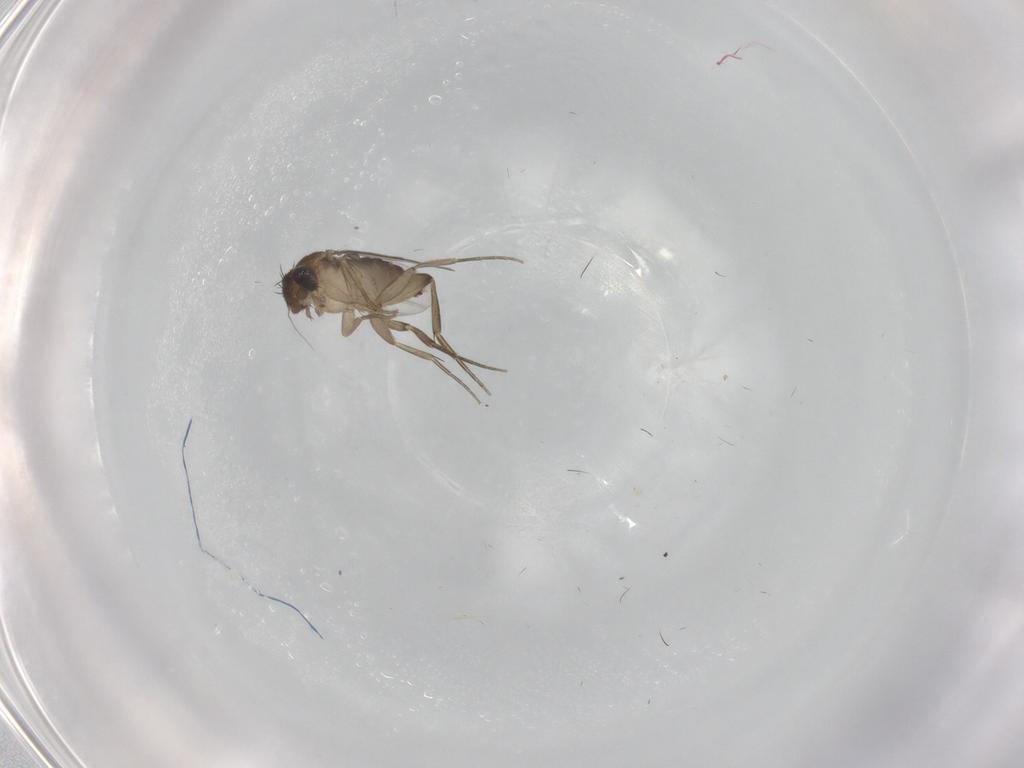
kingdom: Animalia
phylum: Arthropoda
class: Insecta
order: Diptera
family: Phoridae
